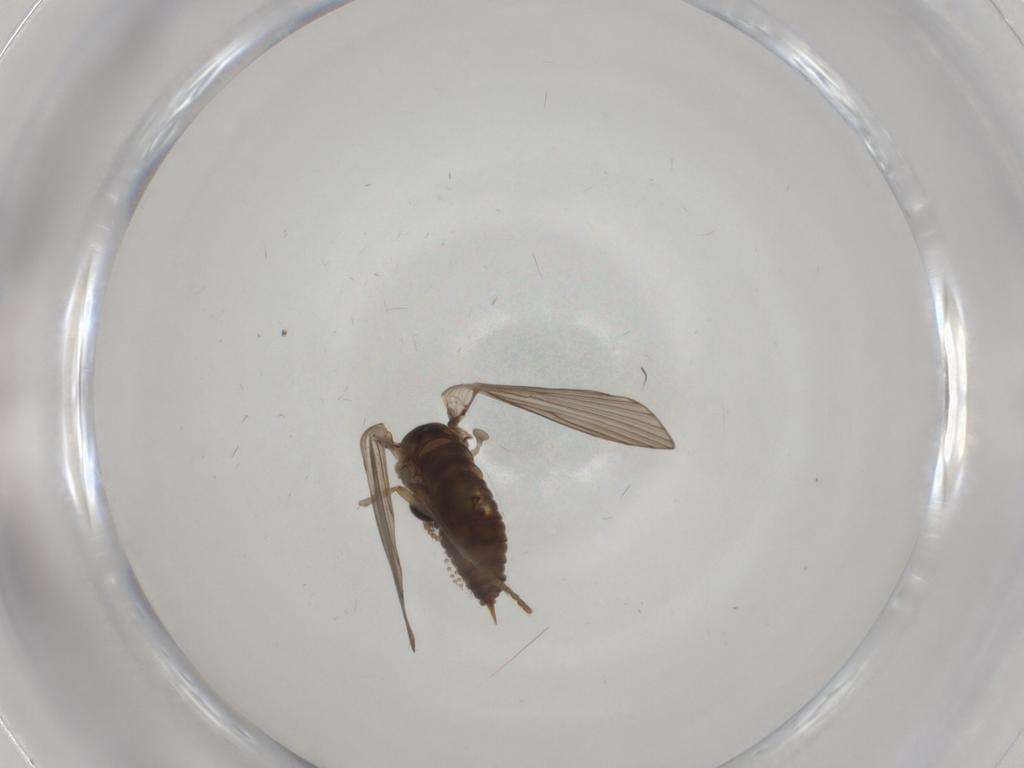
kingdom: Animalia
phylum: Arthropoda
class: Insecta
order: Diptera
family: Psychodidae
